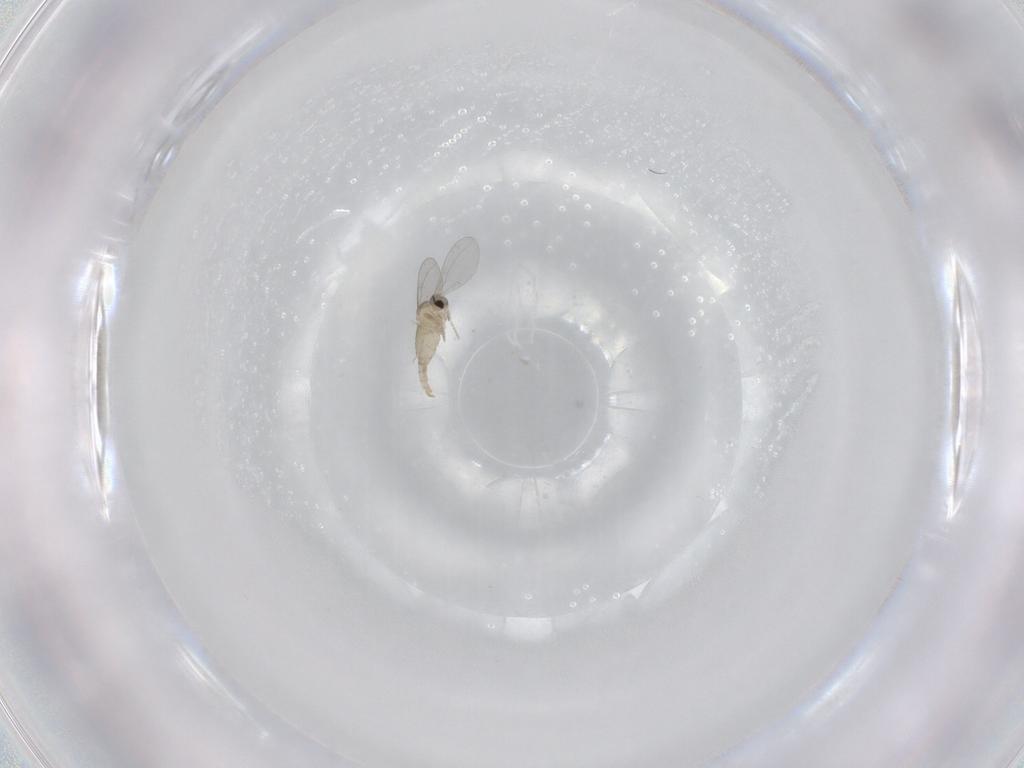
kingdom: Animalia
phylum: Arthropoda
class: Insecta
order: Diptera
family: Cecidomyiidae
